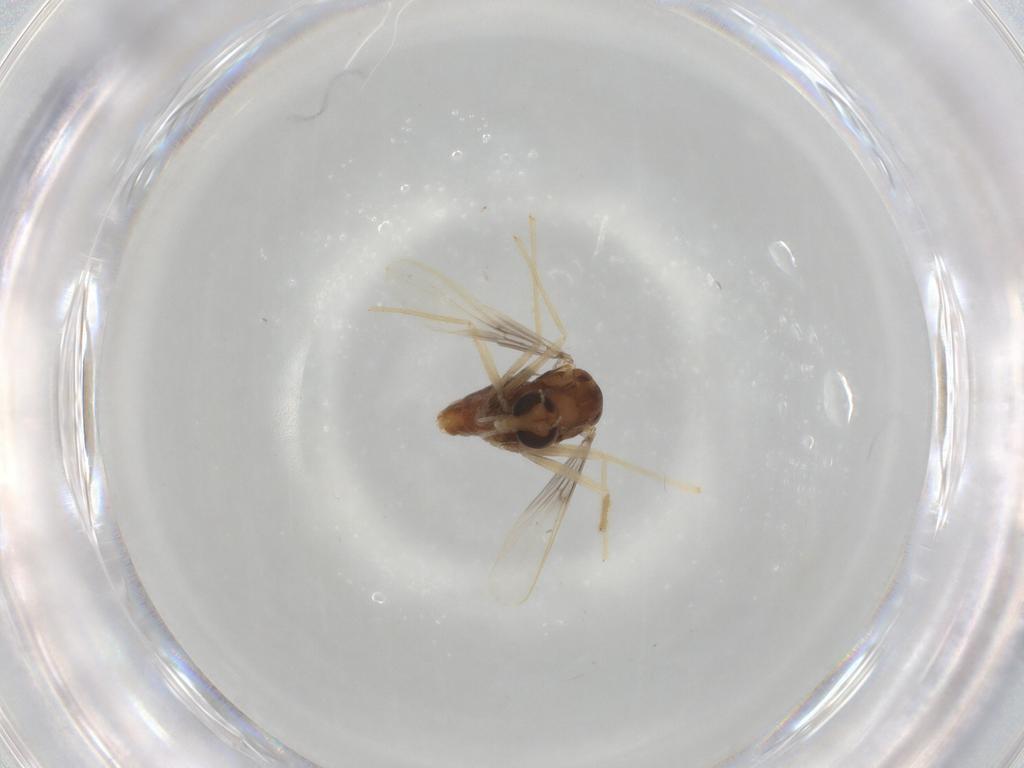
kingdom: Animalia
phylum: Arthropoda
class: Insecta
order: Diptera
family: Chironomidae
